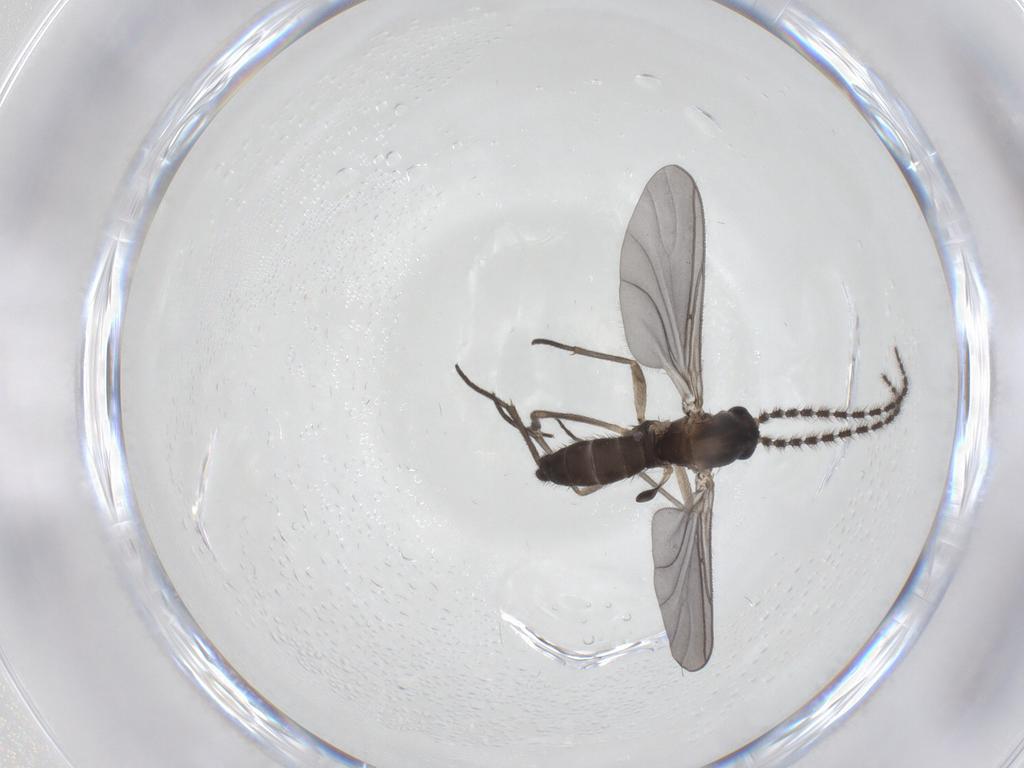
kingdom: Animalia
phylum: Arthropoda
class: Insecta
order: Diptera
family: Sciaridae
